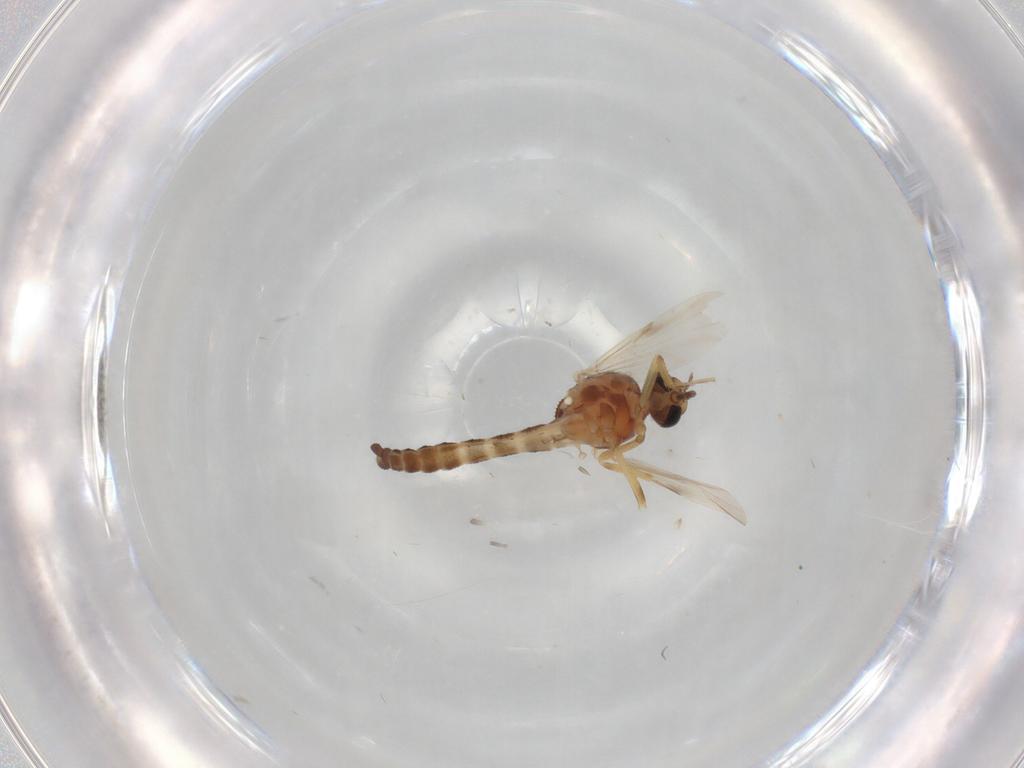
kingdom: Animalia
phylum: Arthropoda
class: Insecta
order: Diptera
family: Ceratopogonidae
